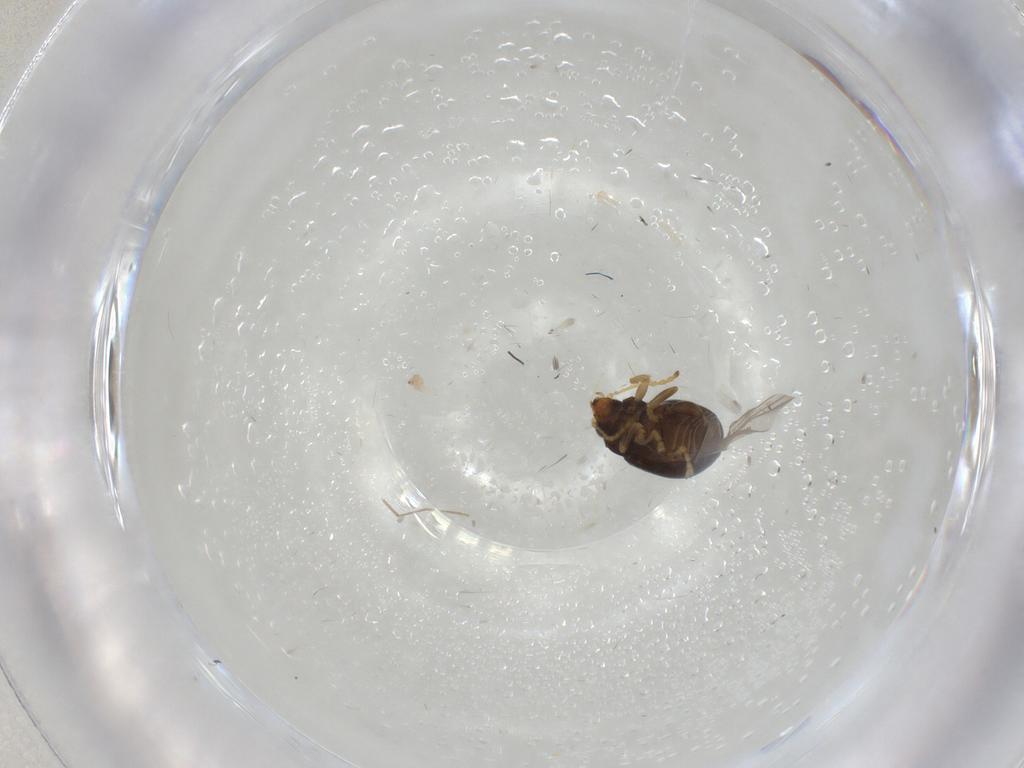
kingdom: Animalia
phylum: Arthropoda
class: Insecta
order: Coleoptera
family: Chrysomelidae
